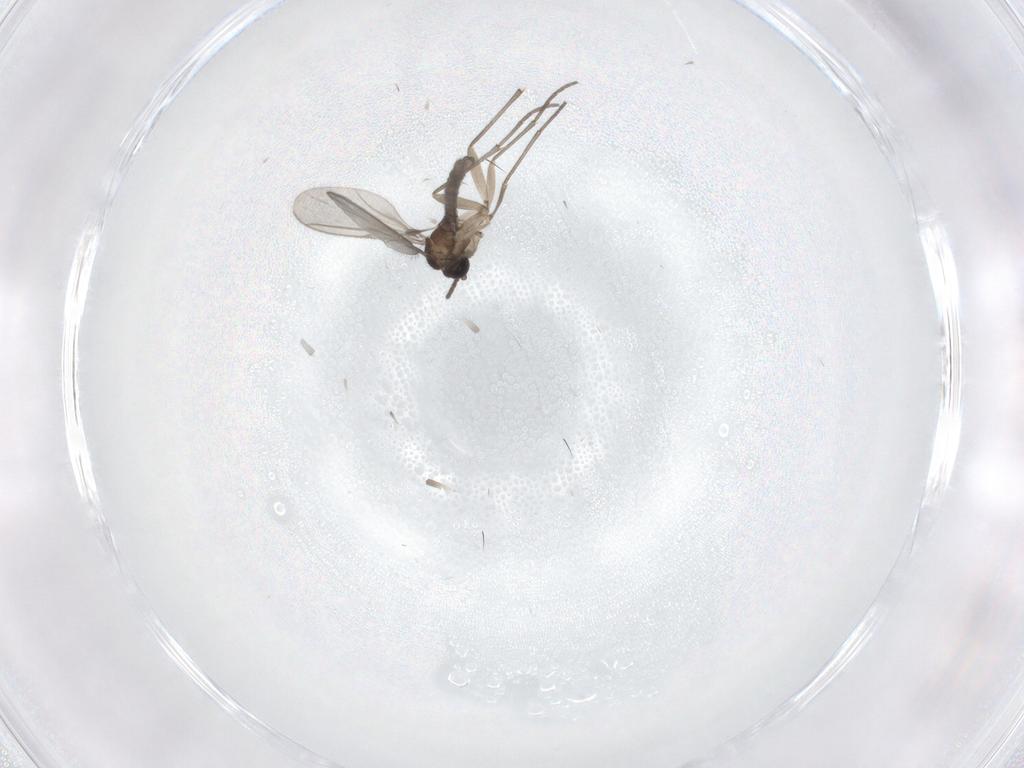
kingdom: Animalia
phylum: Arthropoda
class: Insecta
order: Diptera
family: Sciaridae
